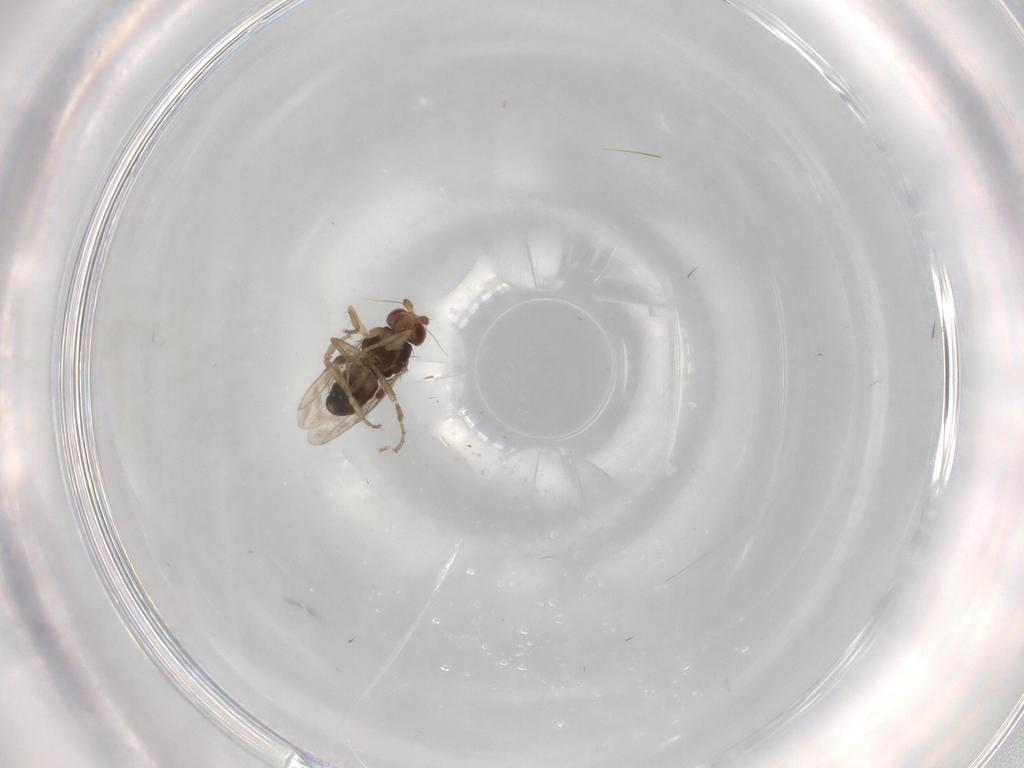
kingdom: Animalia
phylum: Arthropoda
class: Insecta
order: Diptera
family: Sphaeroceridae
